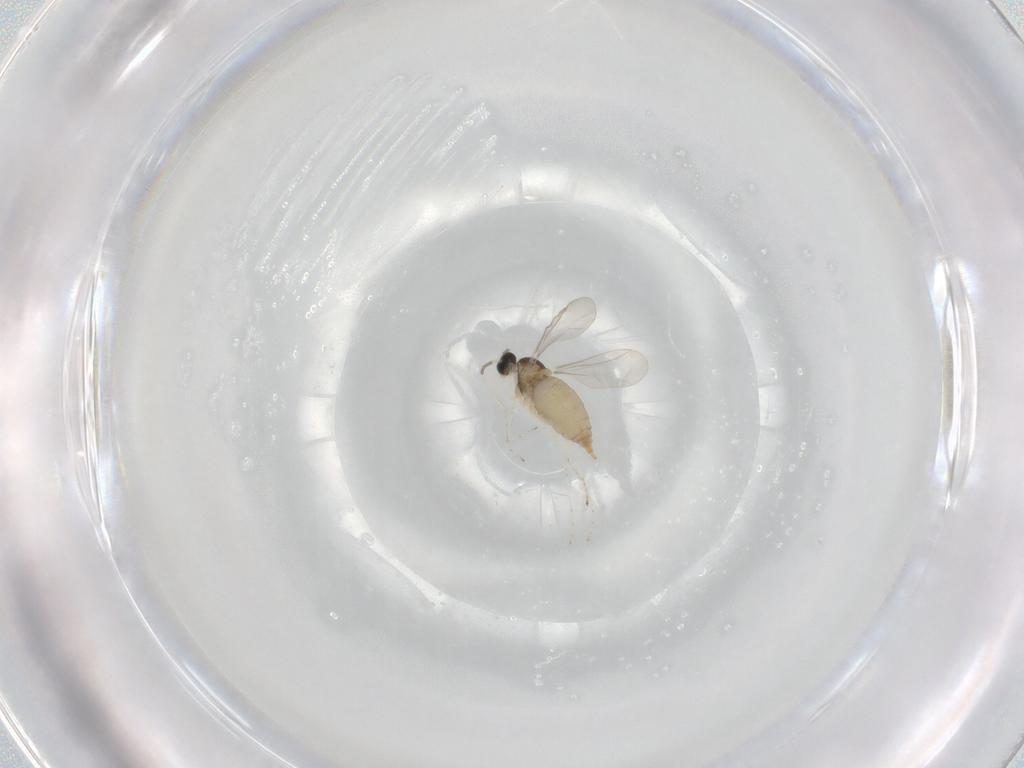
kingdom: Animalia
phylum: Arthropoda
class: Insecta
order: Diptera
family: Cecidomyiidae
